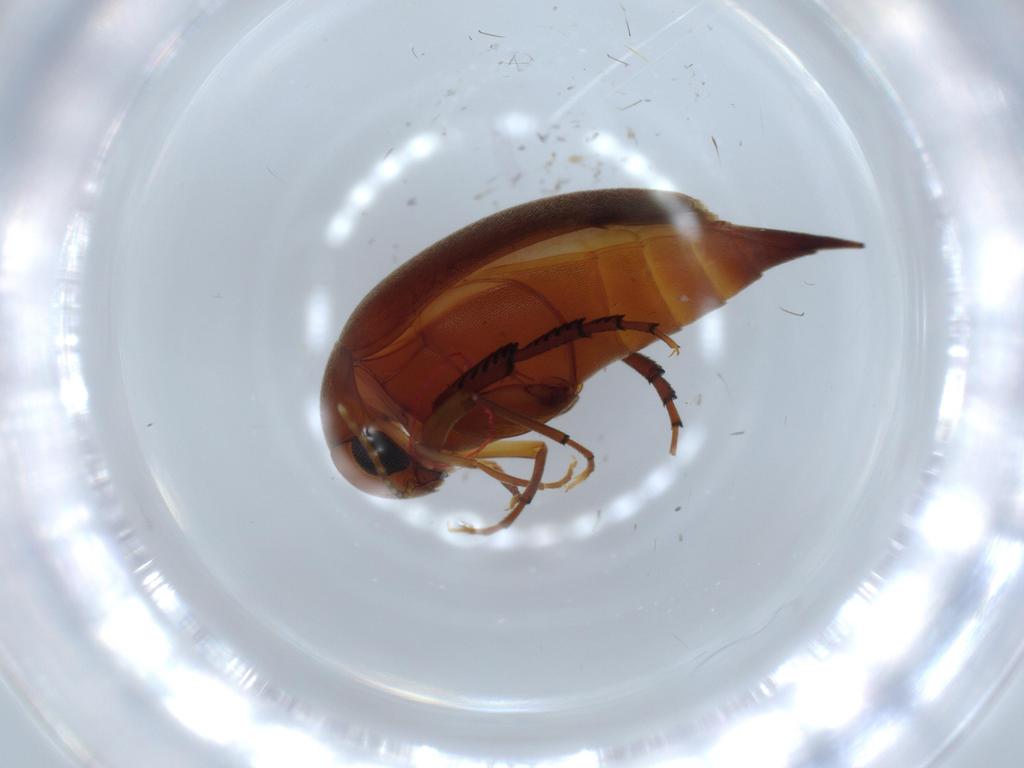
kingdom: Animalia
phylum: Arthropoda
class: Insecta
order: Coleoptera
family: Mordellidae
